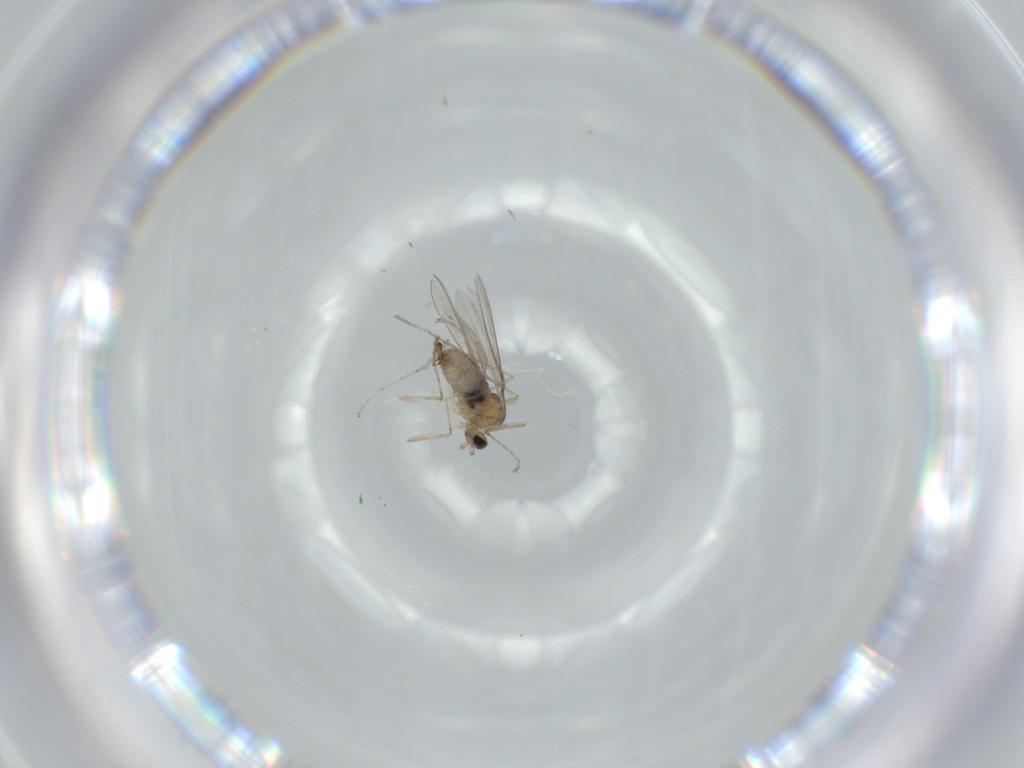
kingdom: Animalia
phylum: Arthropoda
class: Insecta
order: Diptera
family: Cecidomyiidae
